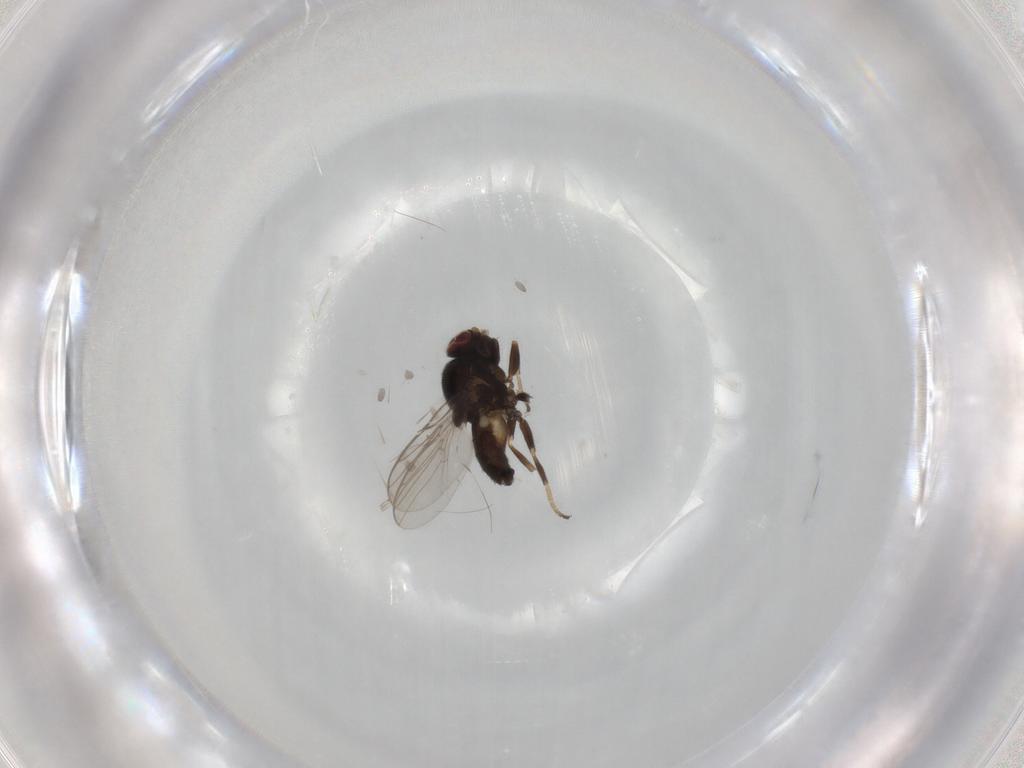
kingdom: Animalia
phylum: Arthropoda
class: Insecta
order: Diptera
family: Chloropidae
